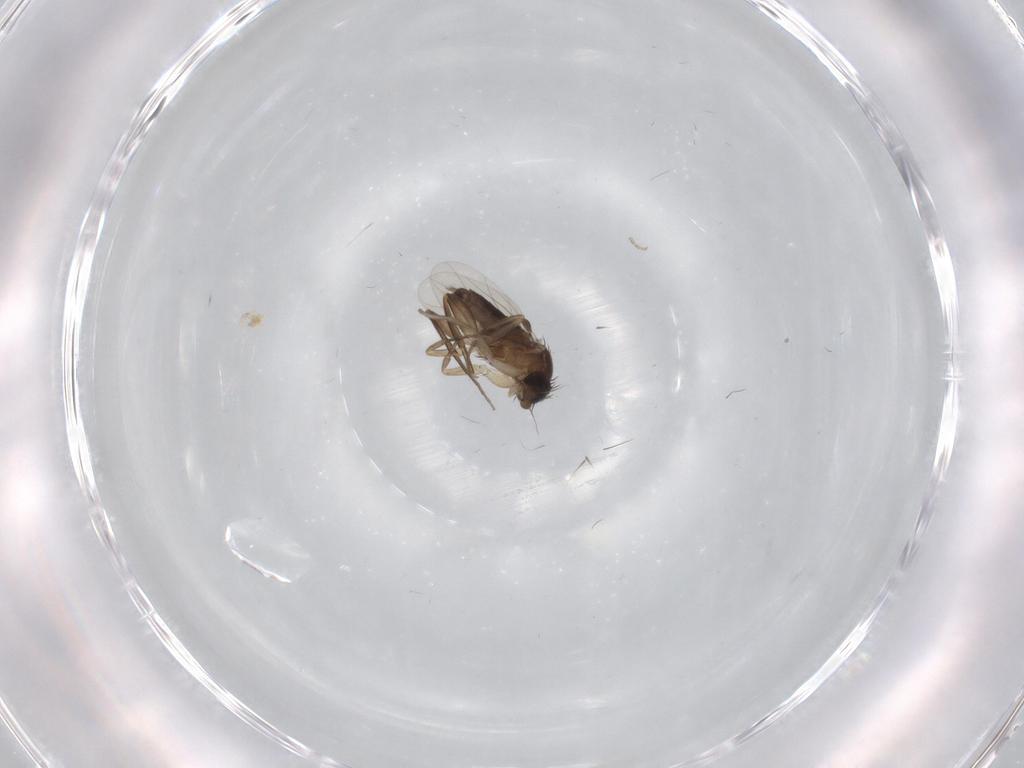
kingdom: Animalia
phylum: Arthropoda
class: Insecta
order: Diptera
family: Phoridae
